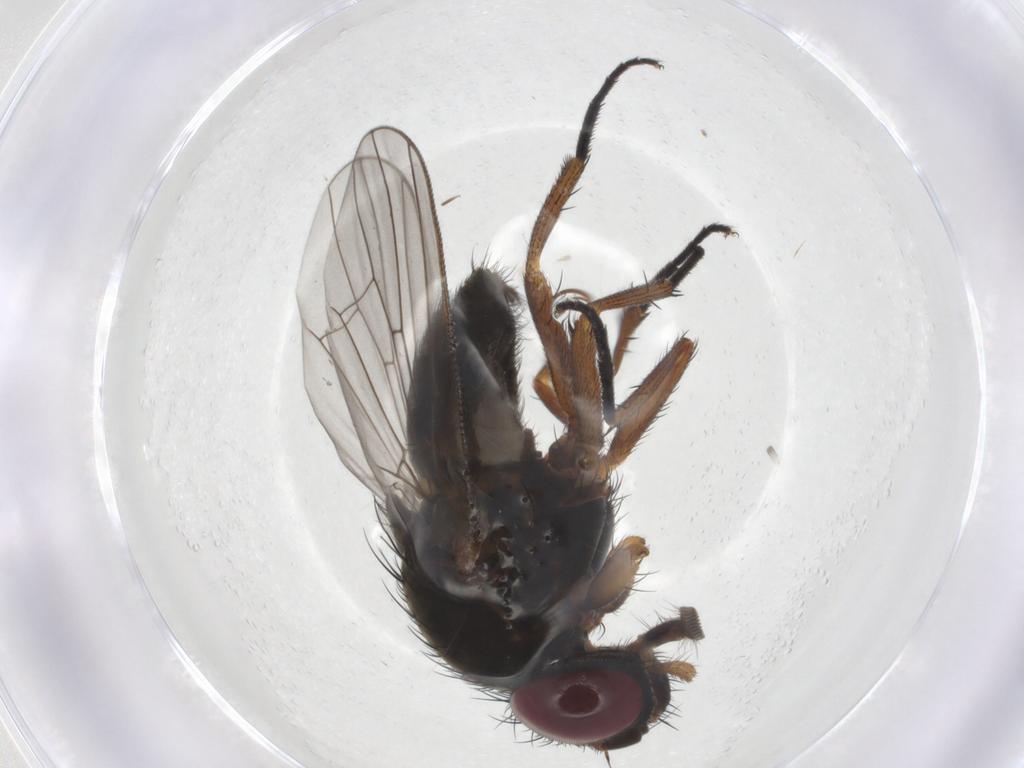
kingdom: Animalia
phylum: Arthropoda
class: Insecta
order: Diptera
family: Fannia
